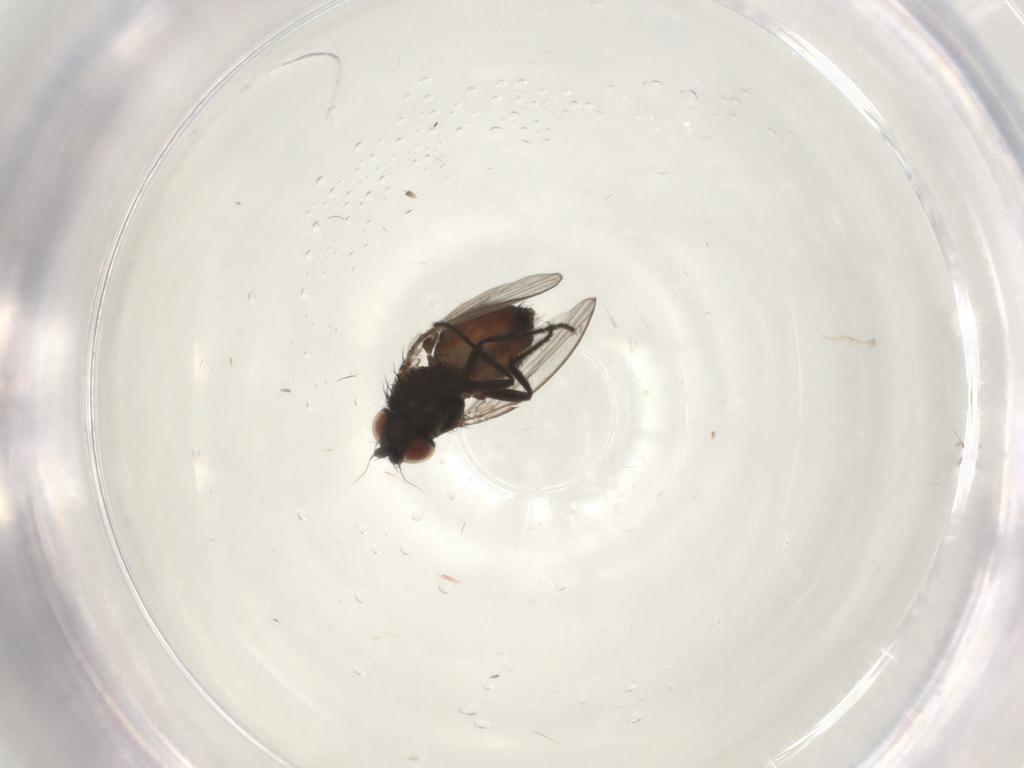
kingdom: Animalia
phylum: Arthropoda
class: Insecta
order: Diptera
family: Milichiidae
